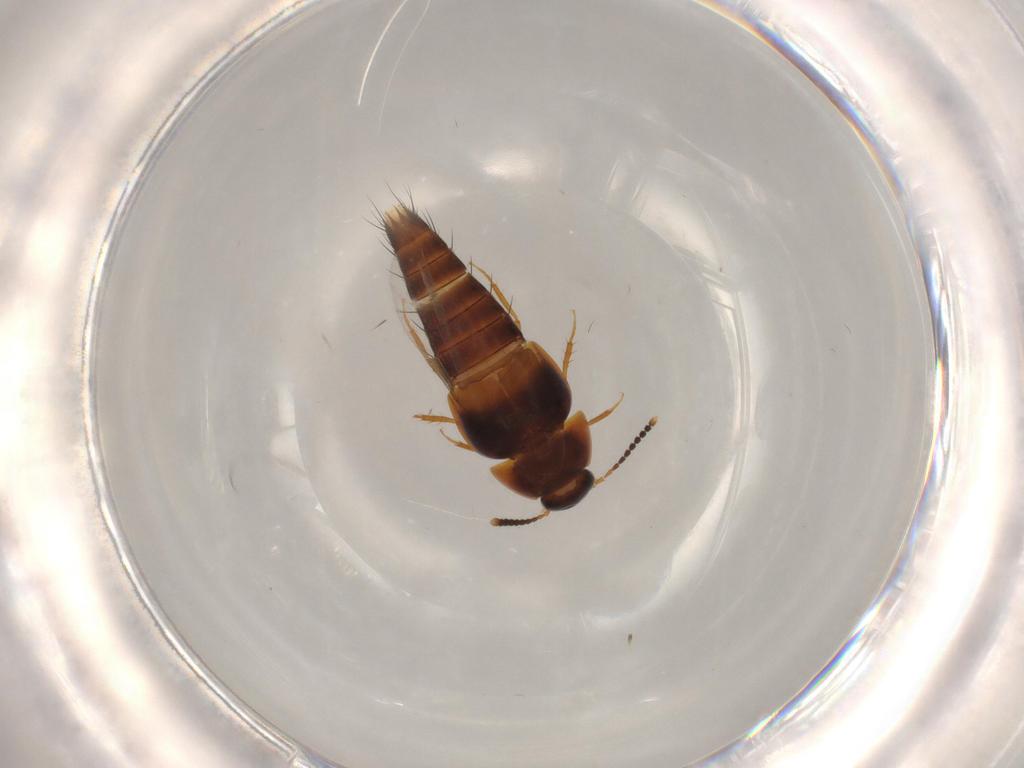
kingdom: Animalia
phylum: Arthropoda
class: Insecta
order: Coleoptera
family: Staphylinidae
